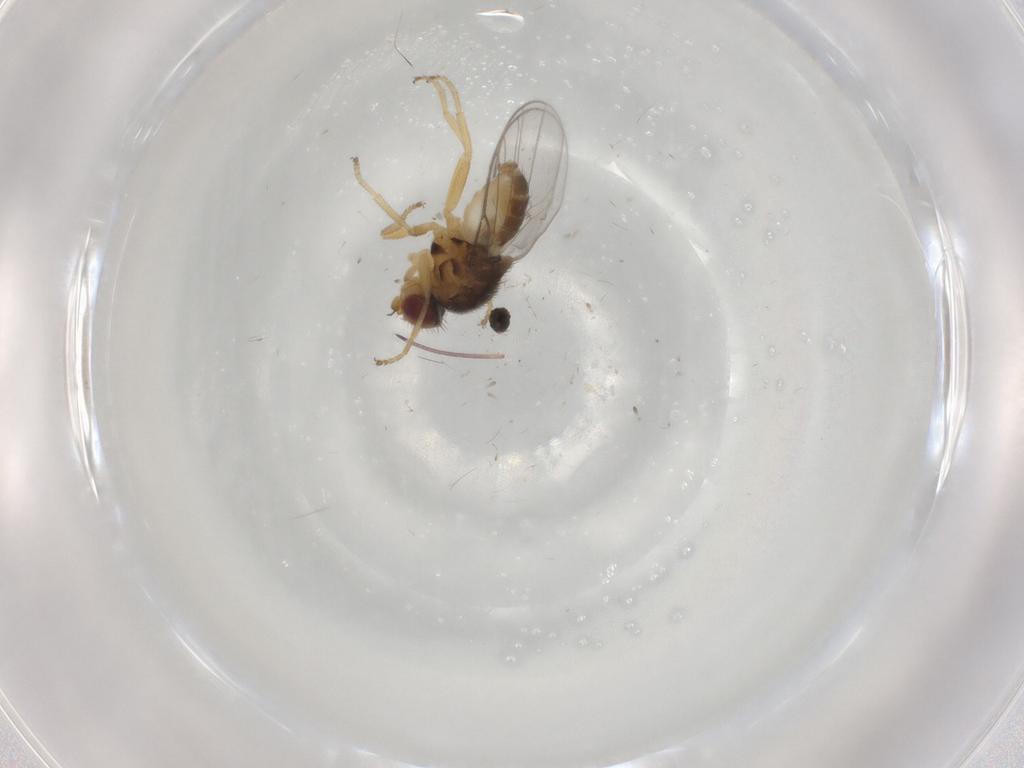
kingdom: Animalia
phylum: Arthropoda
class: Insecta
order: Diptera
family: Chloropidae
